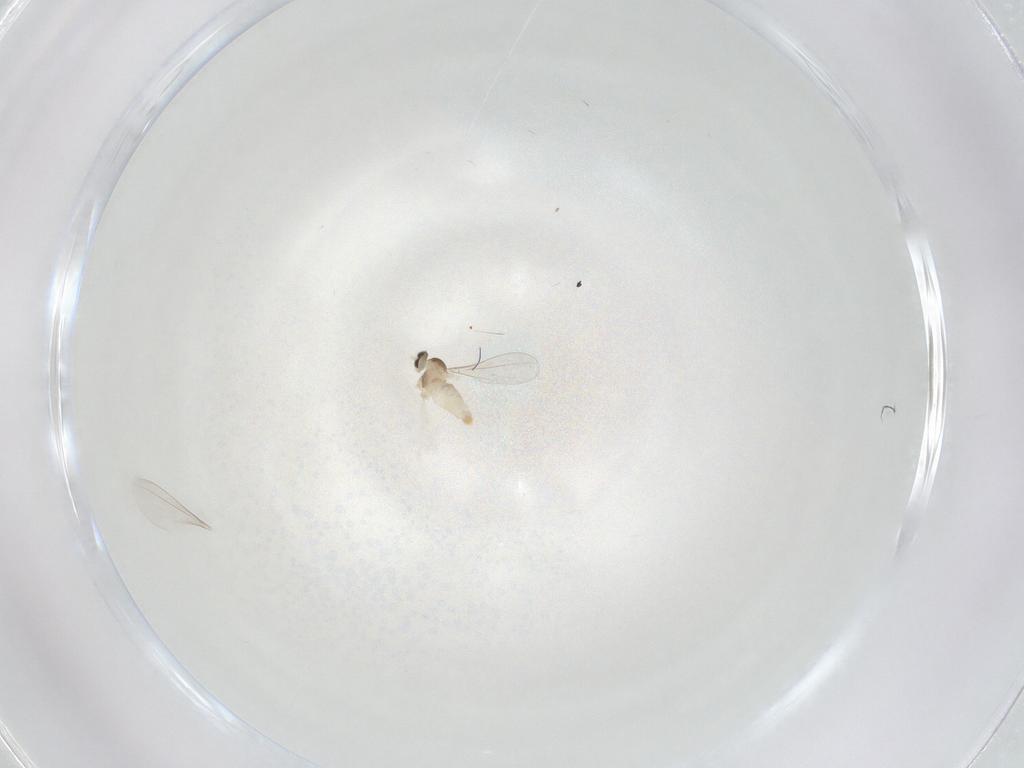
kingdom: Animalia
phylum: Arthropoda
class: Insecta
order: Diptera
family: Cecidomyiidae
